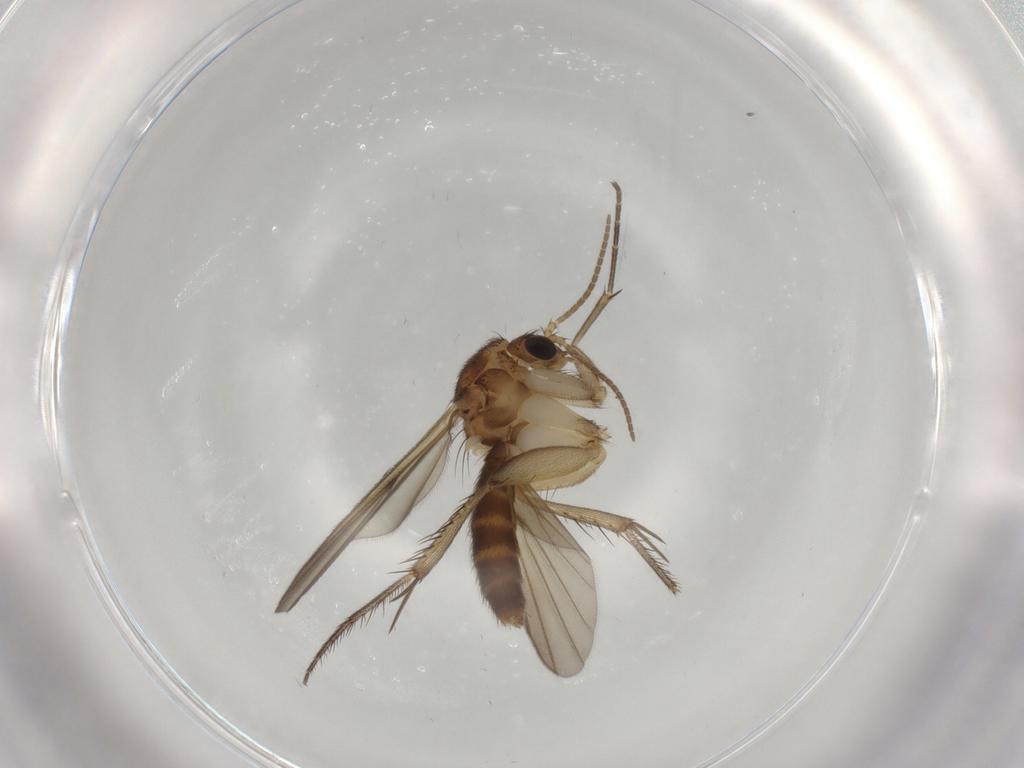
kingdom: Animalia
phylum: Arthropoda
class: Insecta
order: Diptera
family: Mycetophilidae
